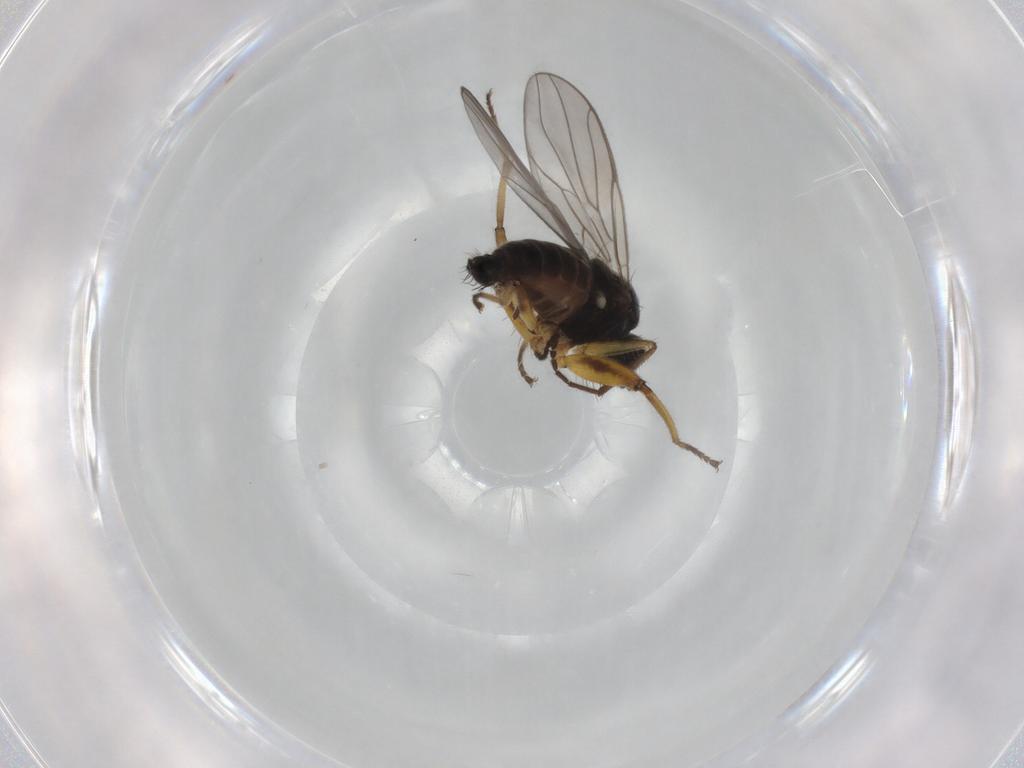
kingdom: Animalia
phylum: Arthropoda
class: Insecta
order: Diptera
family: Hybotidae
